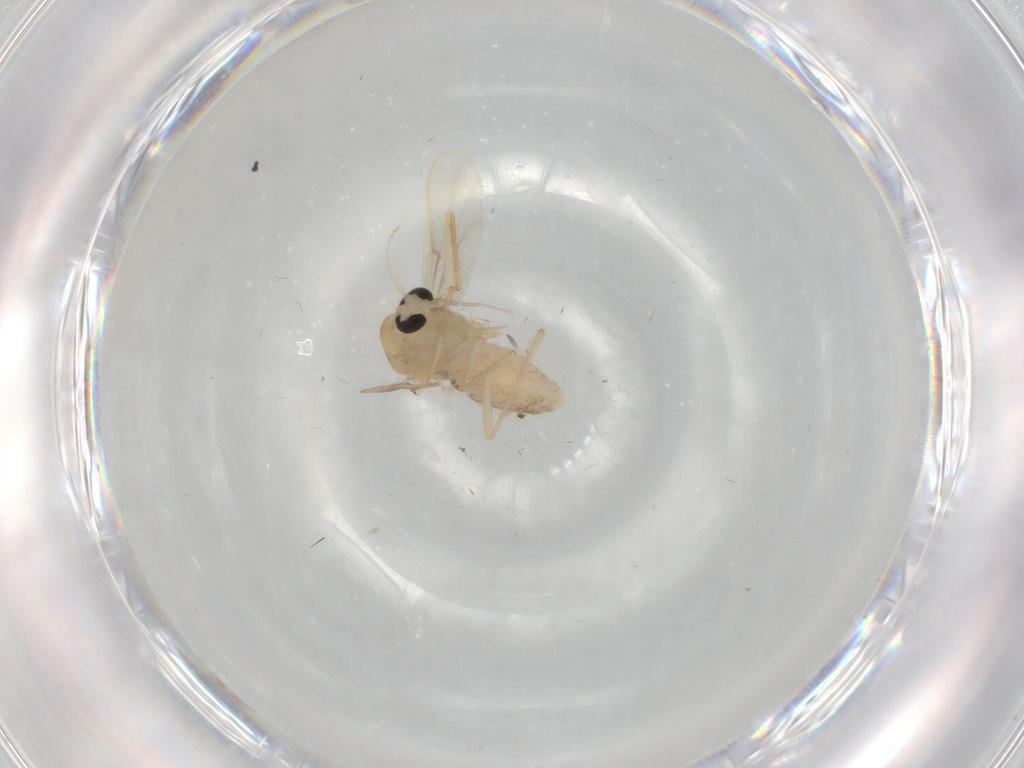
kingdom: Animalia
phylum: Arthropoda
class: Insecta
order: Diptera
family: Chironomidae
